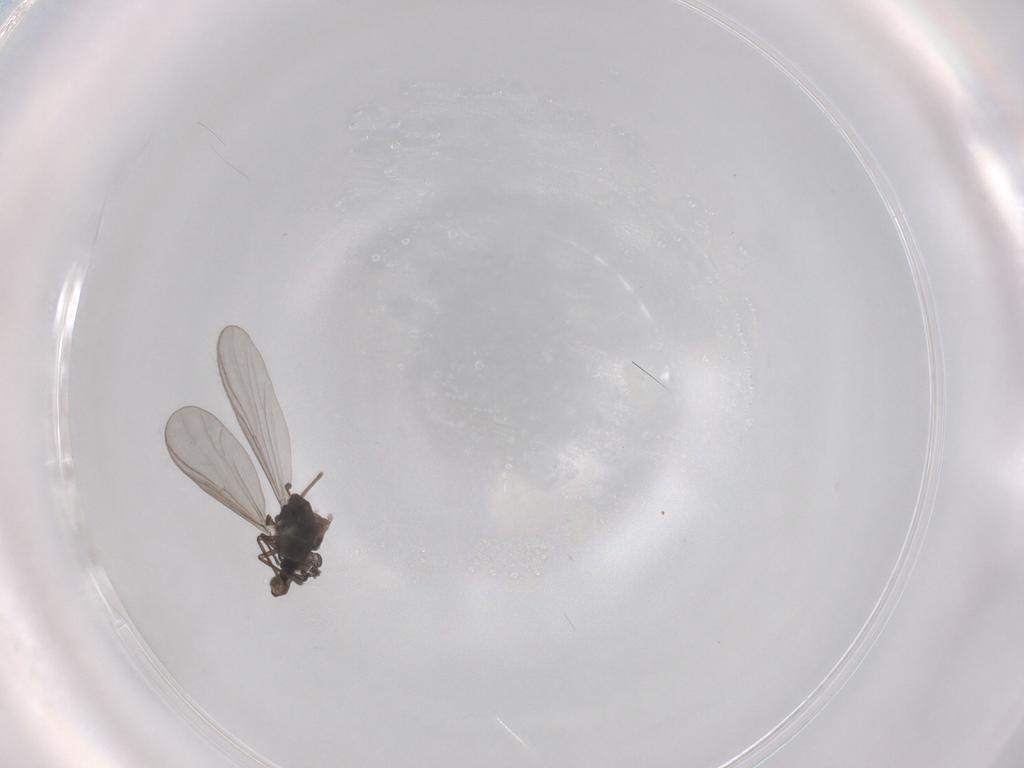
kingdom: Animalia
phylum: Arthropoda
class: Insecta
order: Diptera
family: Chironomidae
